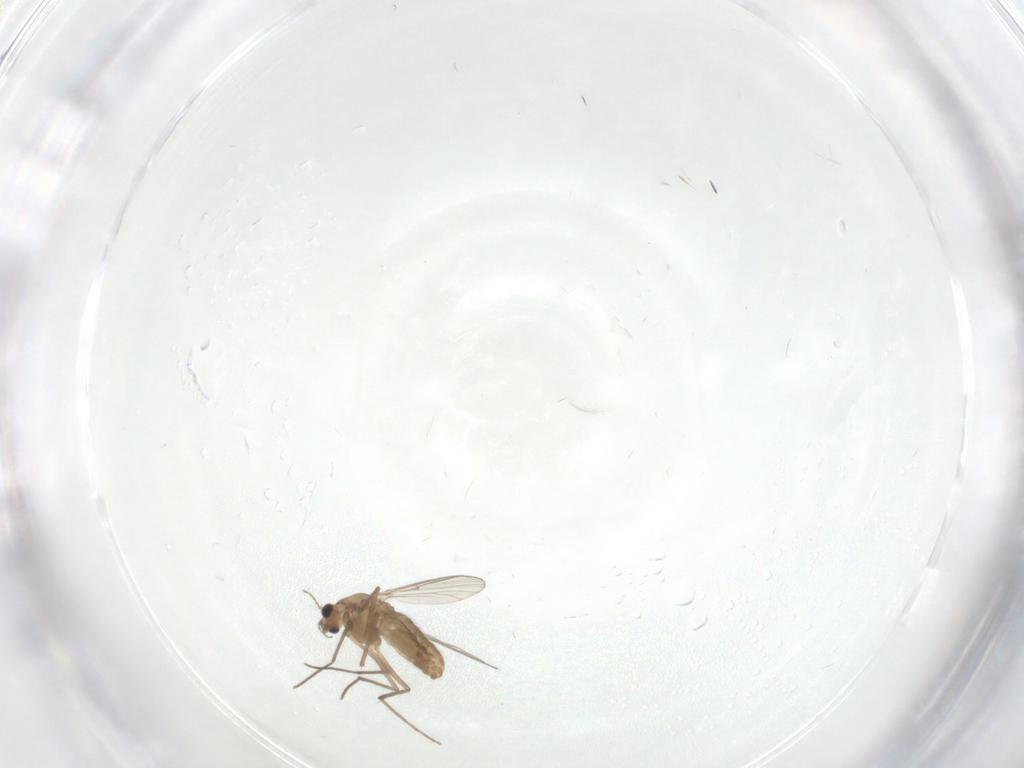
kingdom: Animalia
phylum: Arthropoda
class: Insecta
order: Diptera
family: Chironomidae
